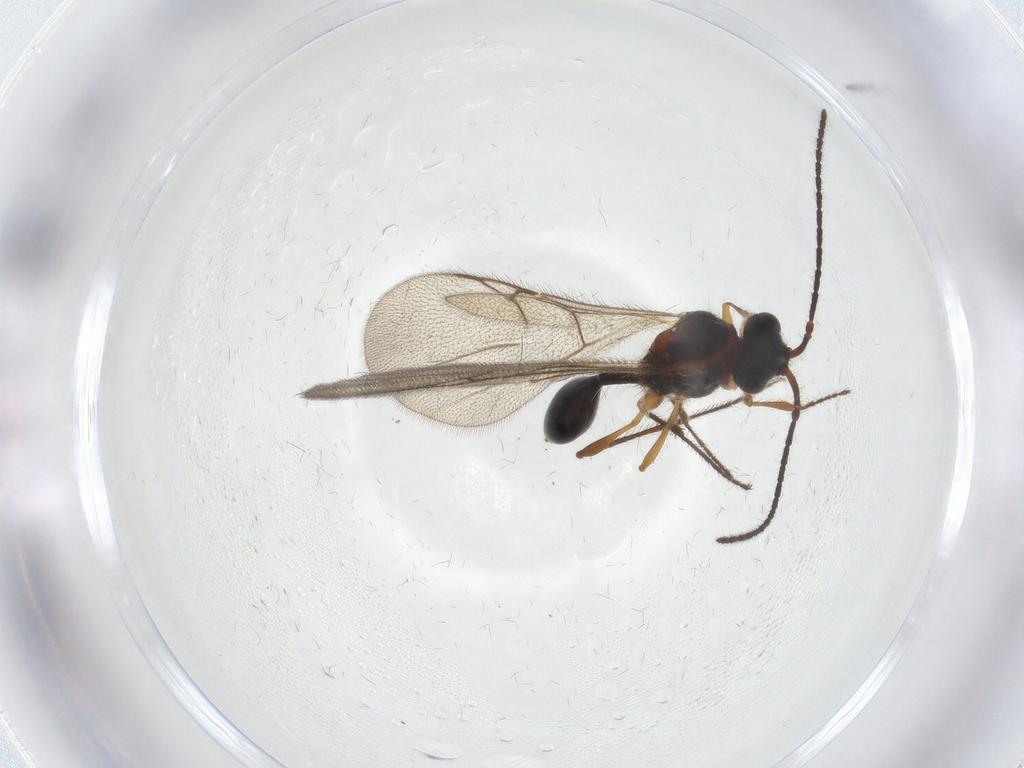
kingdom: Animalia
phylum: Arthropoda
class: Insecta
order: Hymenoptera
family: Diapriidae
